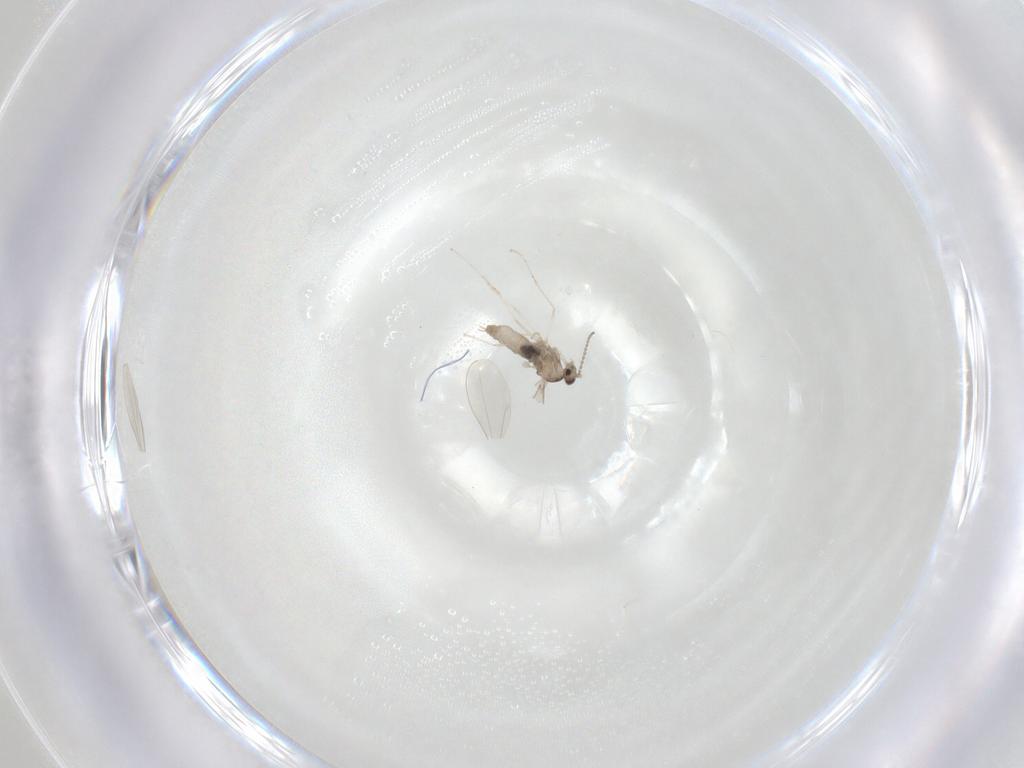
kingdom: Animalia
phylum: Arthropoda
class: Insecta
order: Diptera
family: Cecidomyiidae
